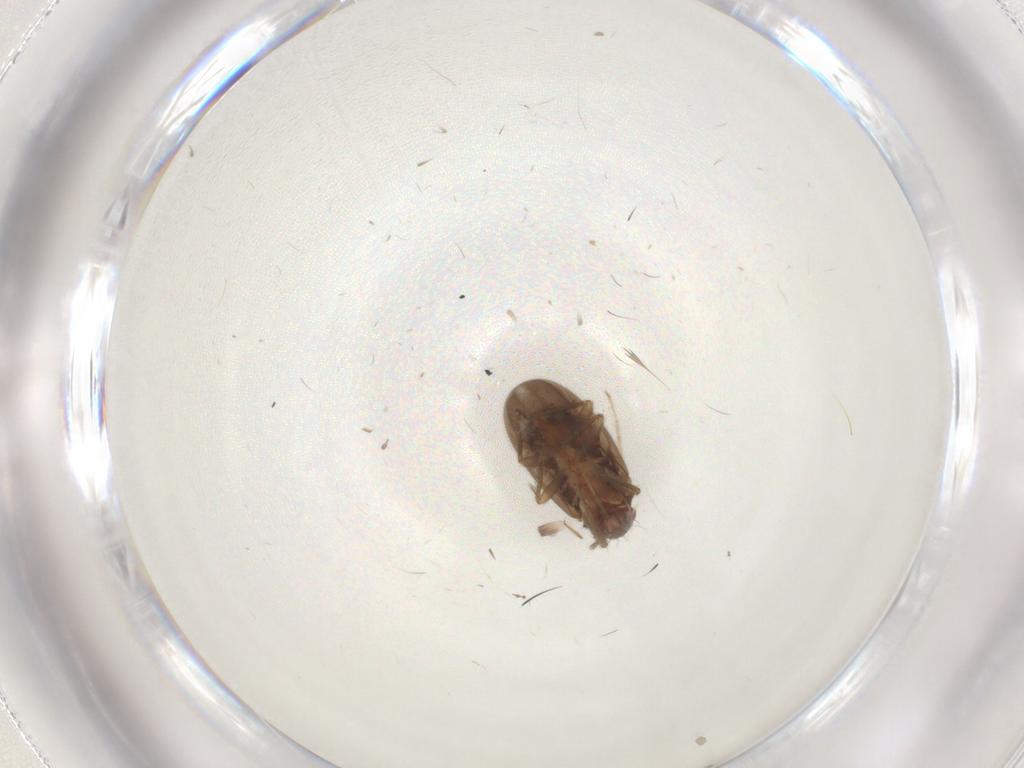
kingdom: Animalia
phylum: Arthropoda
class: Insecta
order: Hemiptera
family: Ceratocombidae
